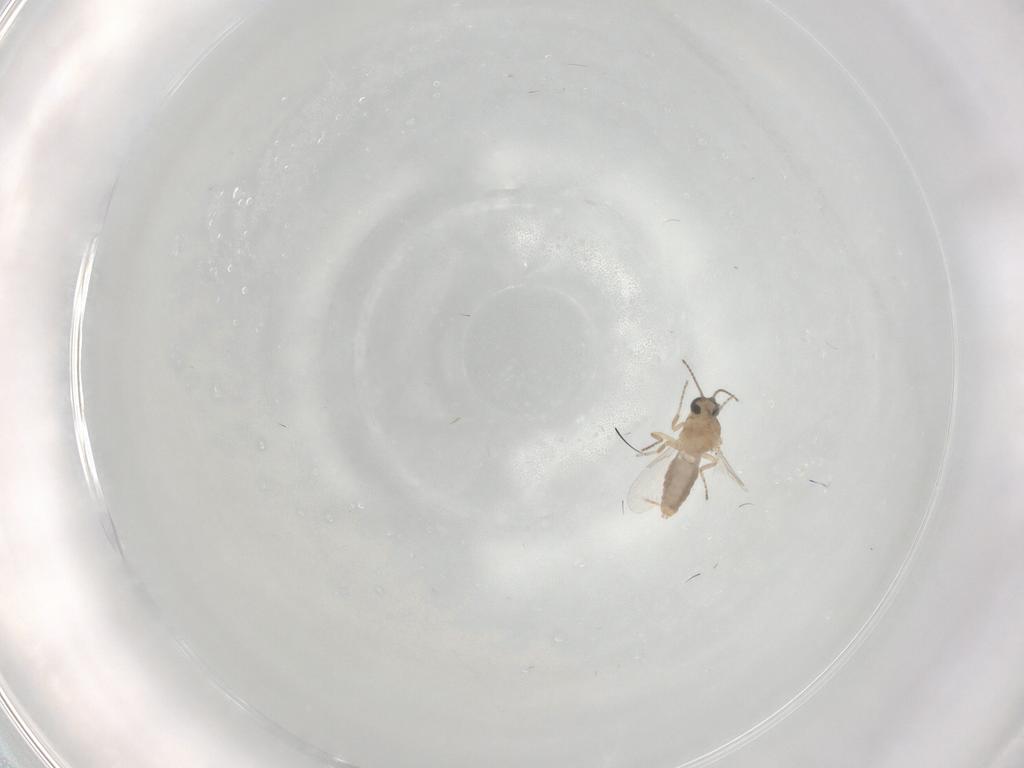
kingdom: Animalia
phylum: Arthropoda
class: Insecta
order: Diptera
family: Ceratopogonidae
